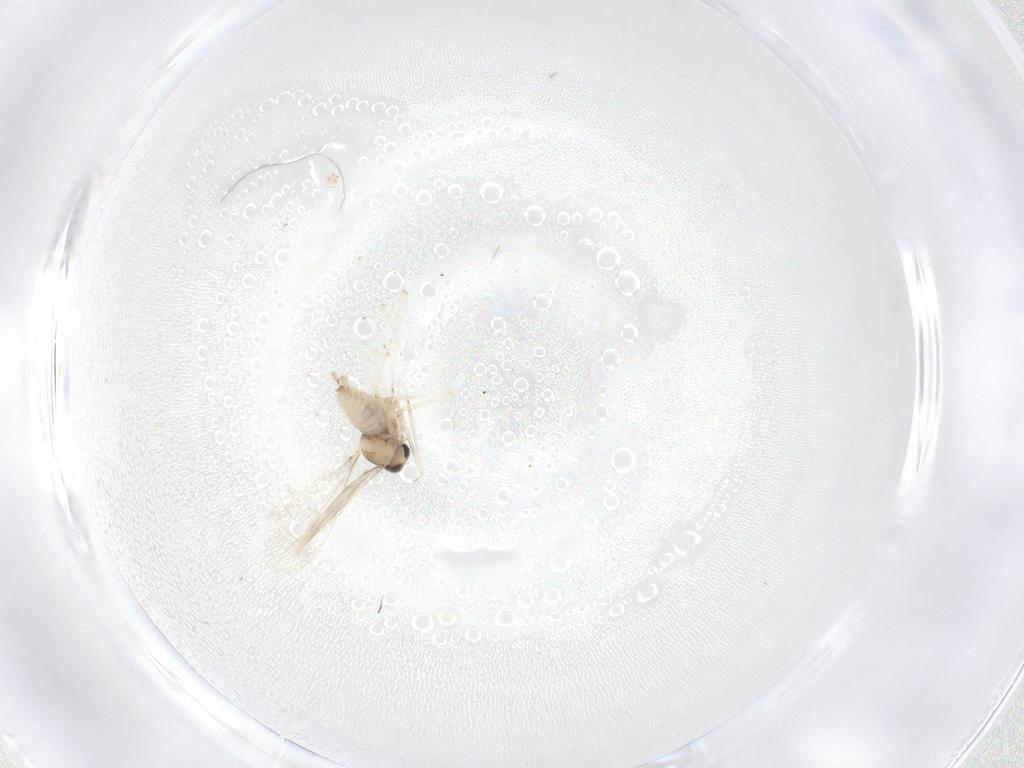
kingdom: Animalia
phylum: Arthropoda
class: Insecta
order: Diptera
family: Cecidomyiidae
